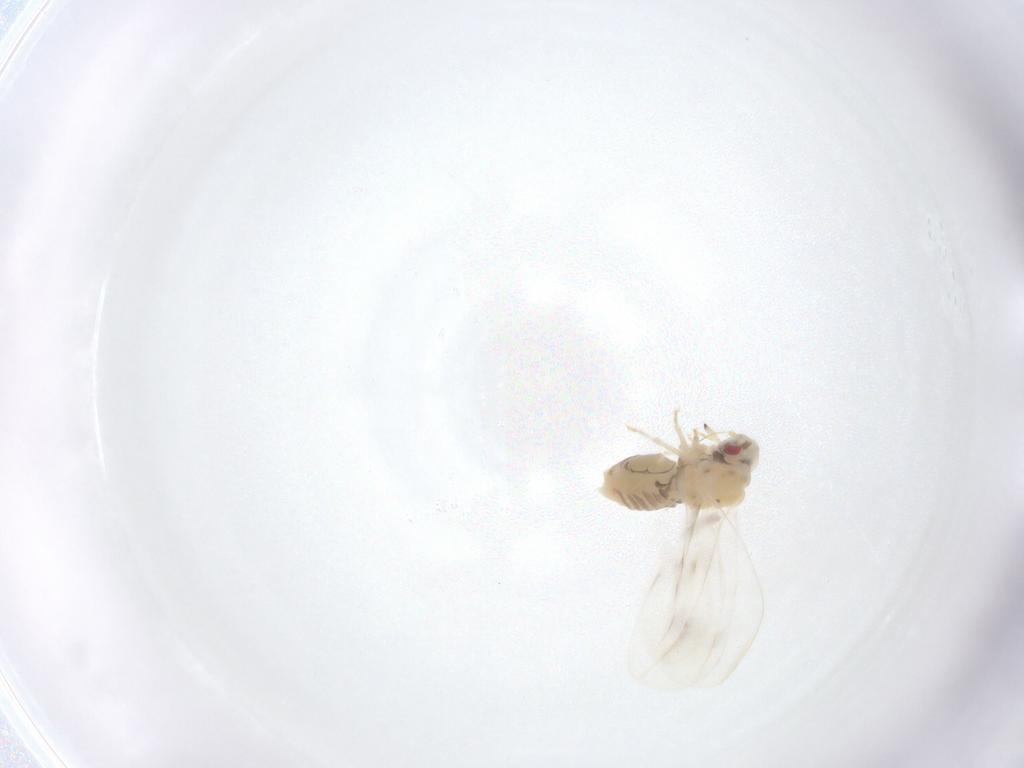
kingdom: Animalia
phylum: Arthropoda
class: Insecta
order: Hemiptera
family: Aleyrodidae
